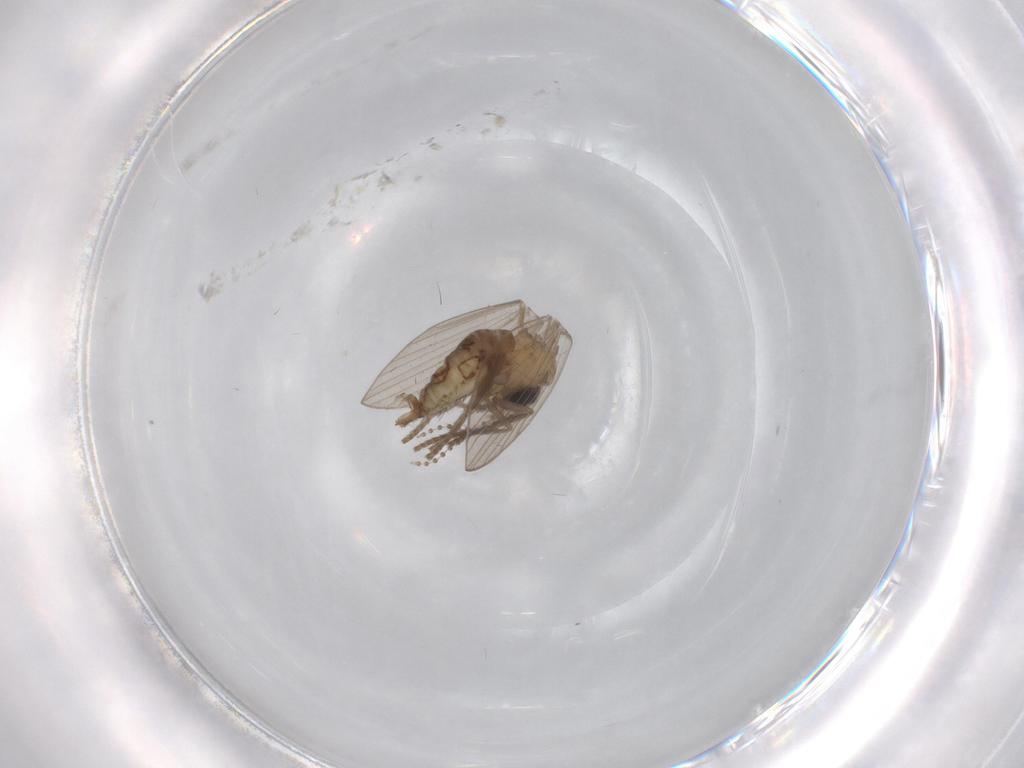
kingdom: Animalia
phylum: Arthropoda
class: Insecta
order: Diptera
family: Psychodidae
